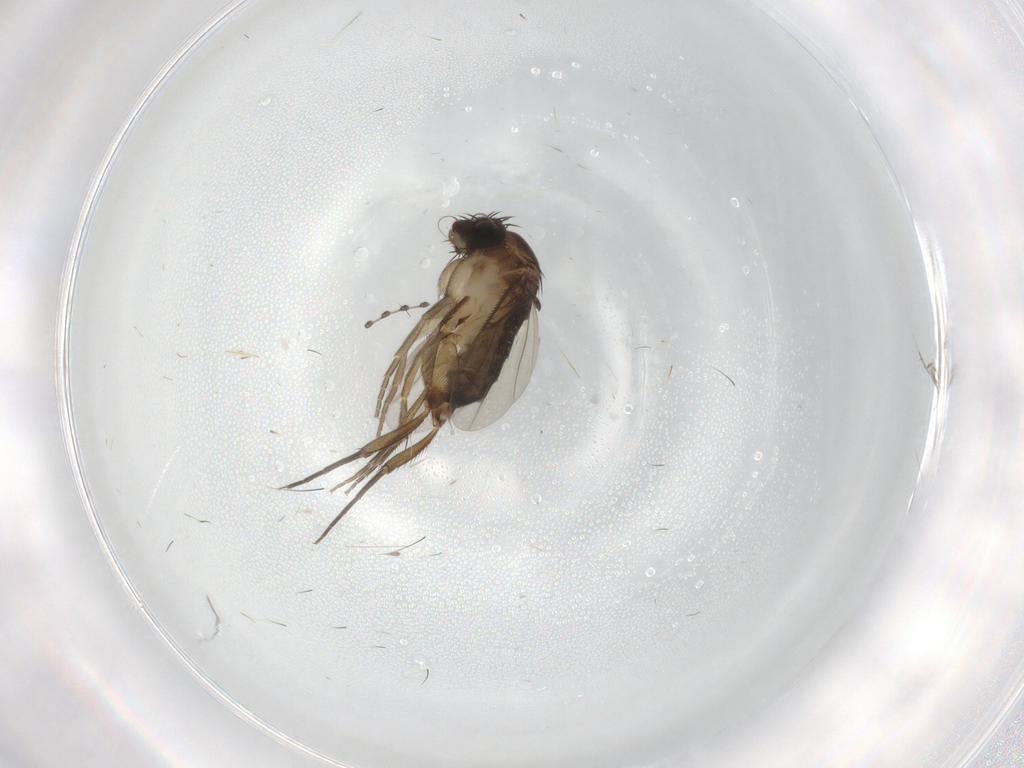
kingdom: Animalia
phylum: Arthropoda
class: Insecta
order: Diptera
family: Phoridae
